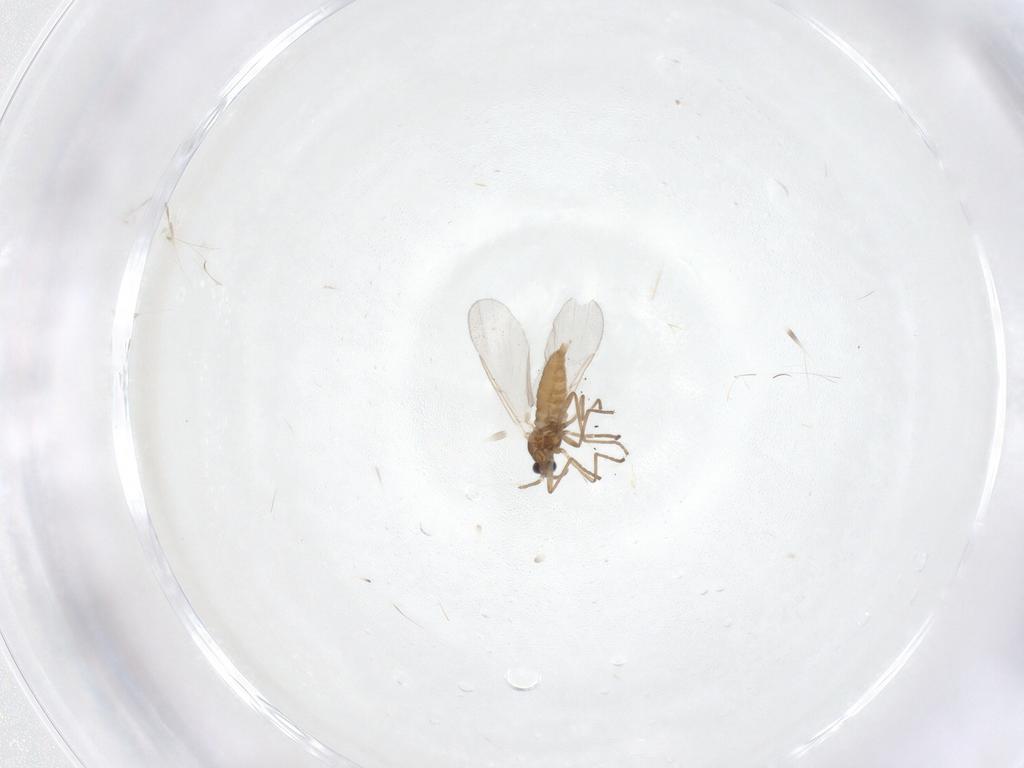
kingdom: Animalia
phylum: Arthropoda
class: Insecta
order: Diptera
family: Cecidomyiidae
